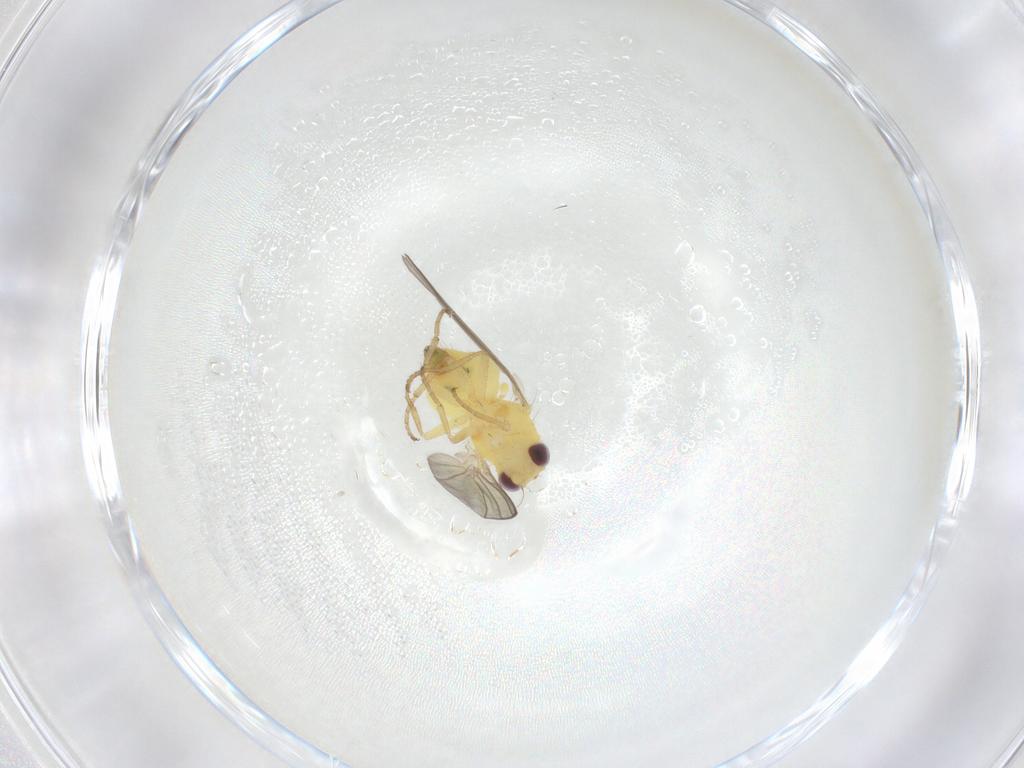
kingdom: Animalia
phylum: Arthropoda
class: Insecta
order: Diptera
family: Agromyzidae
